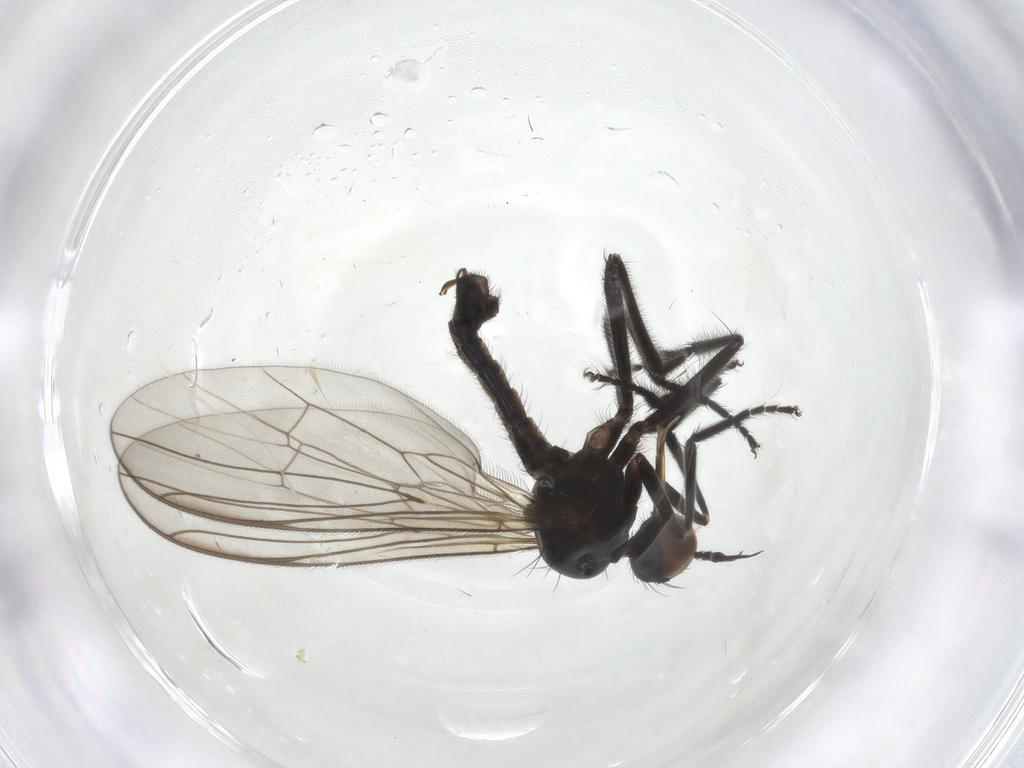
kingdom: Animalia
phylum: Arthropoda
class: Insecta
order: Diptera
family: Empididae
